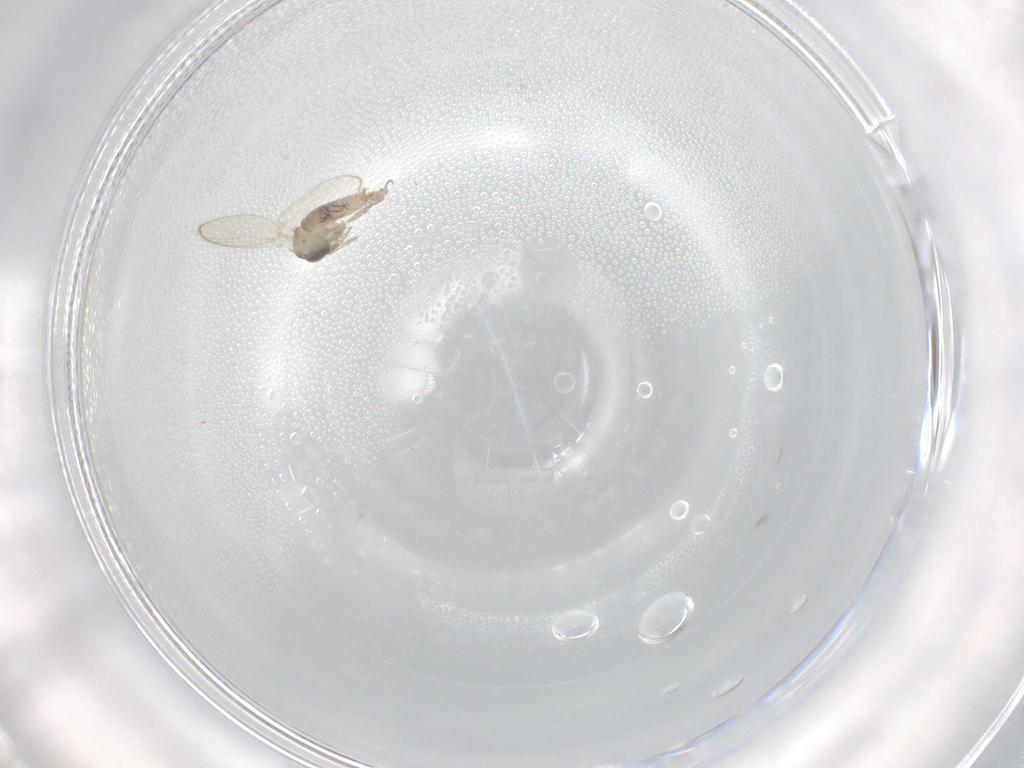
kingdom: Animalia
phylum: Arthropoda
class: Insecta
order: Diptera
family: Psychodidae
